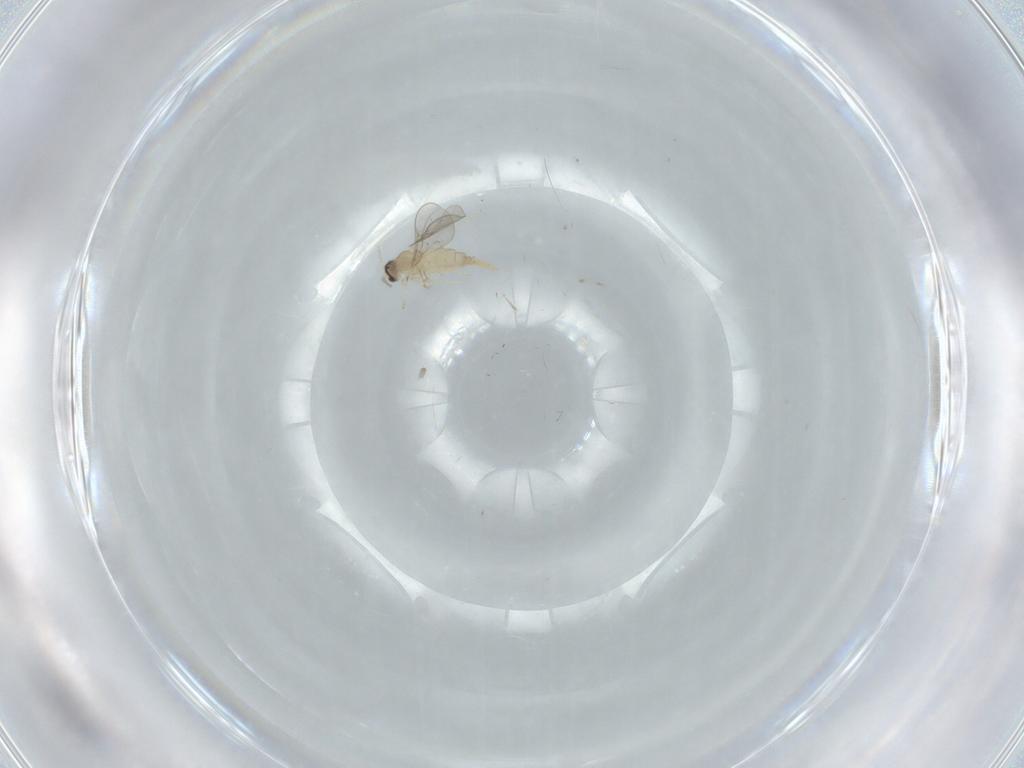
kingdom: Animalia
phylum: Arthropoda
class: Insecta
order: Diptera
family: Cecidomyiidae
